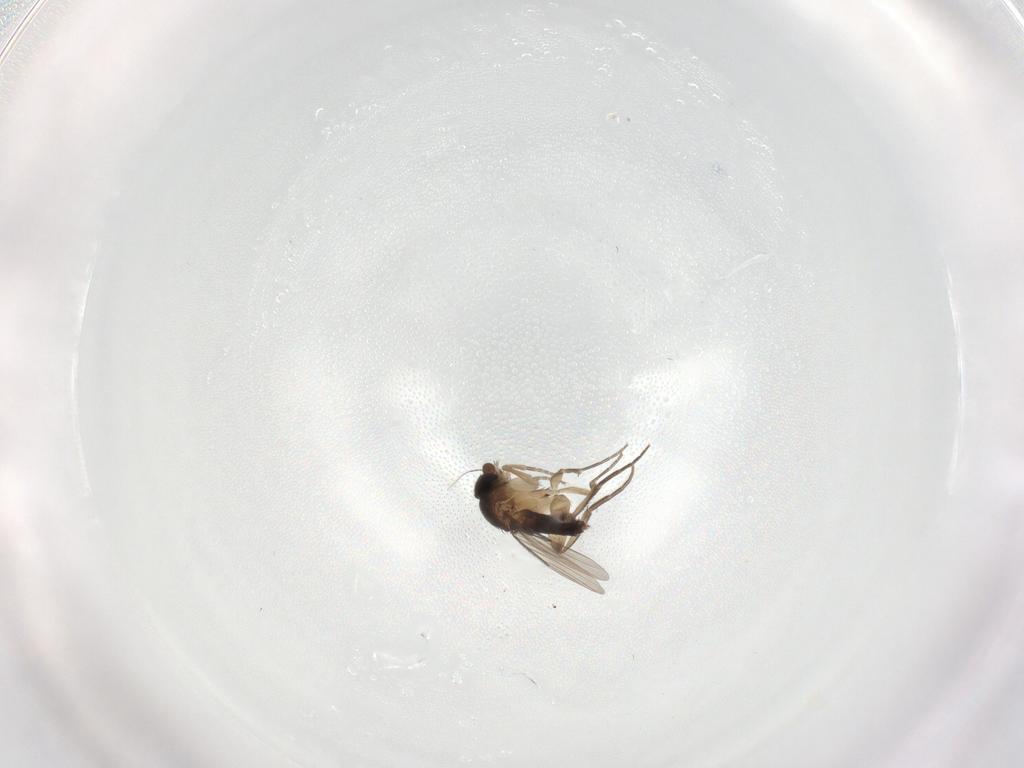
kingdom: Animalia
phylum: Arthropoda
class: Insecta
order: Diptera
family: Phoridae
